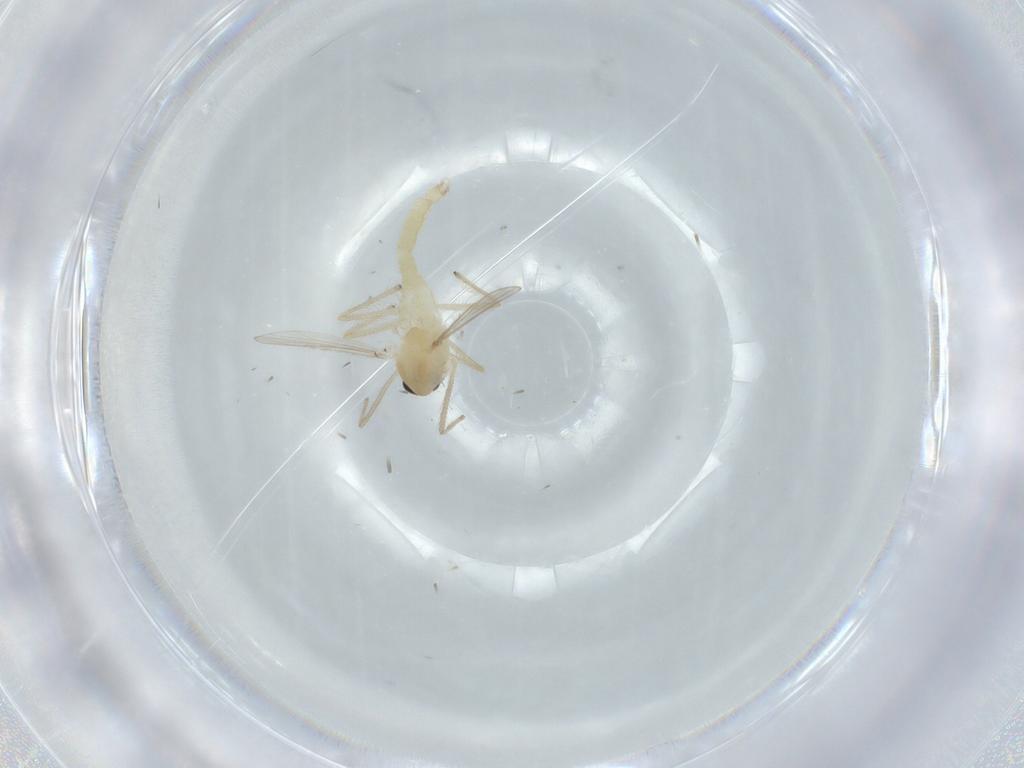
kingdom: Animalia
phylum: Arthropoda
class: Insecta
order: Diptera
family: Chironomidae
